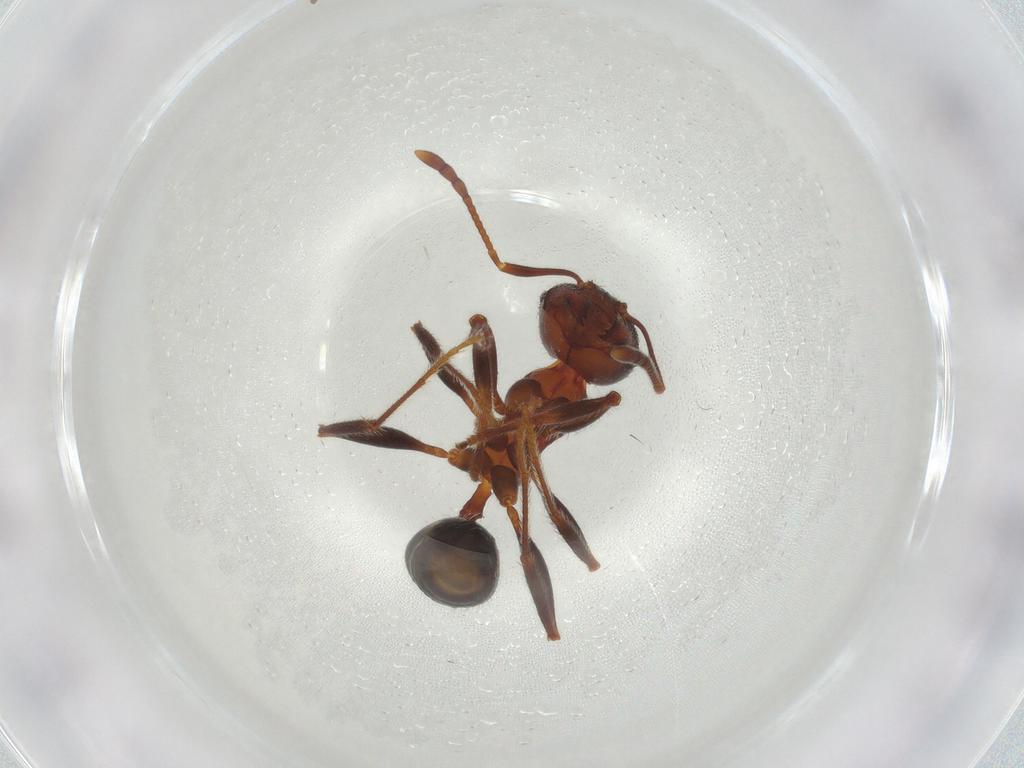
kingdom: Animalia
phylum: Arthropoda
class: Insecta
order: Hymenoptera
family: Formicidae
